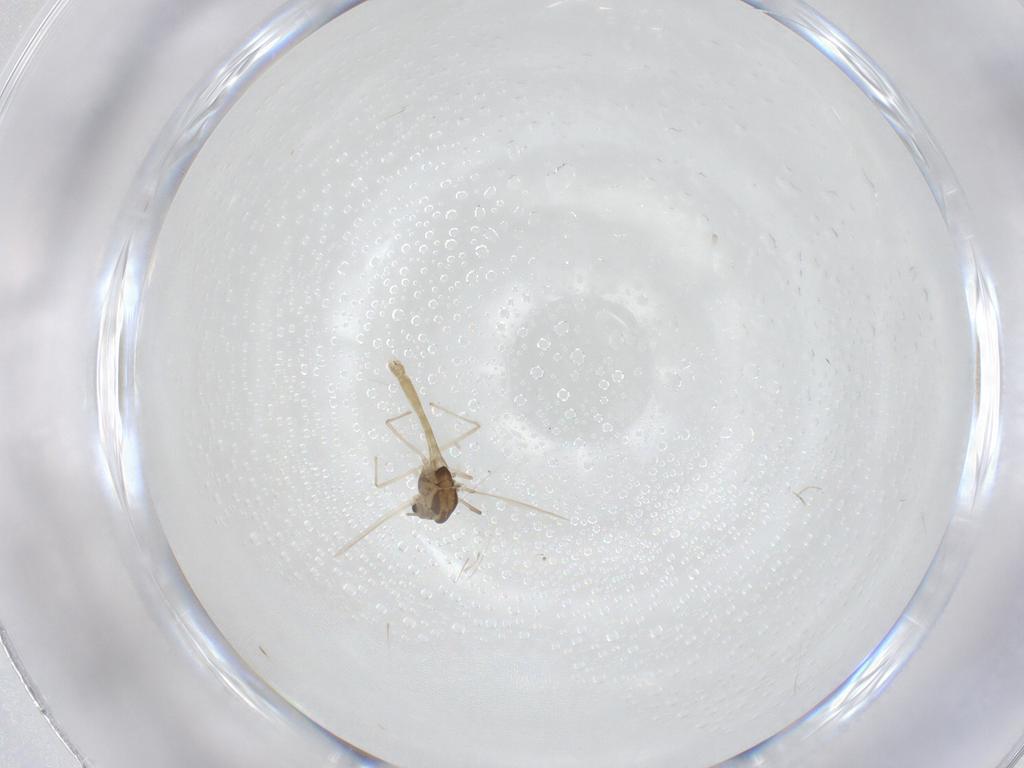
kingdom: Animalia
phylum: Arthropoda
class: Insecta
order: Diptera
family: Chironomidae
